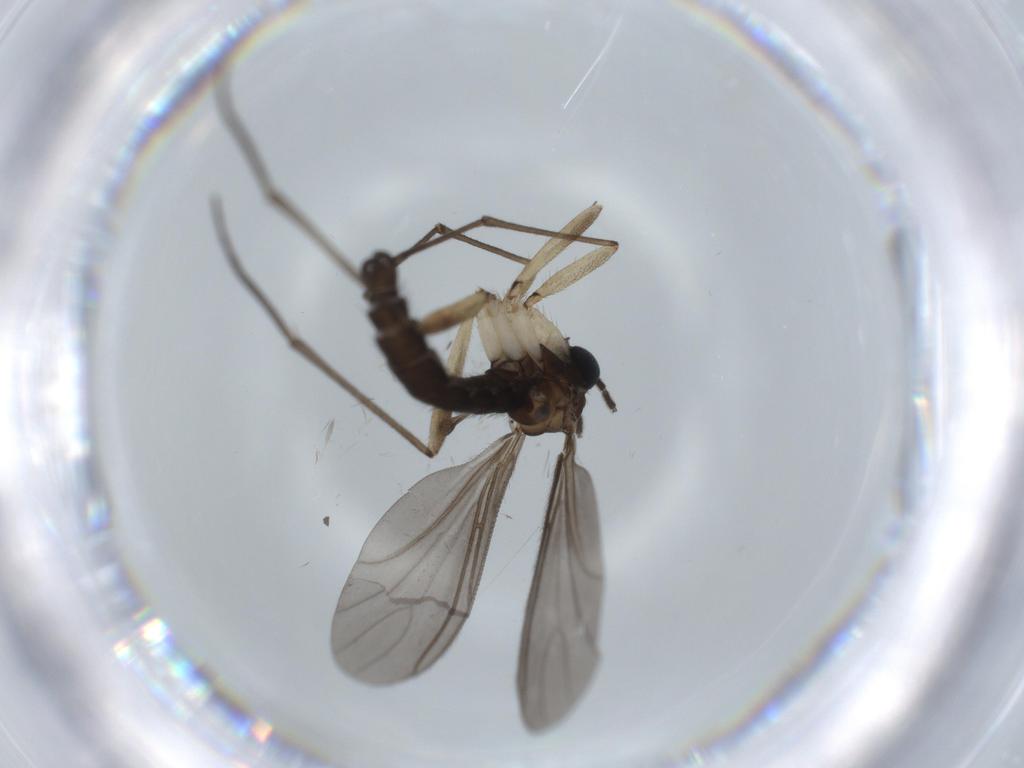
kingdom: Animalia
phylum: Arthropoda
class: Insecta
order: Diptera
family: Sciaridae
